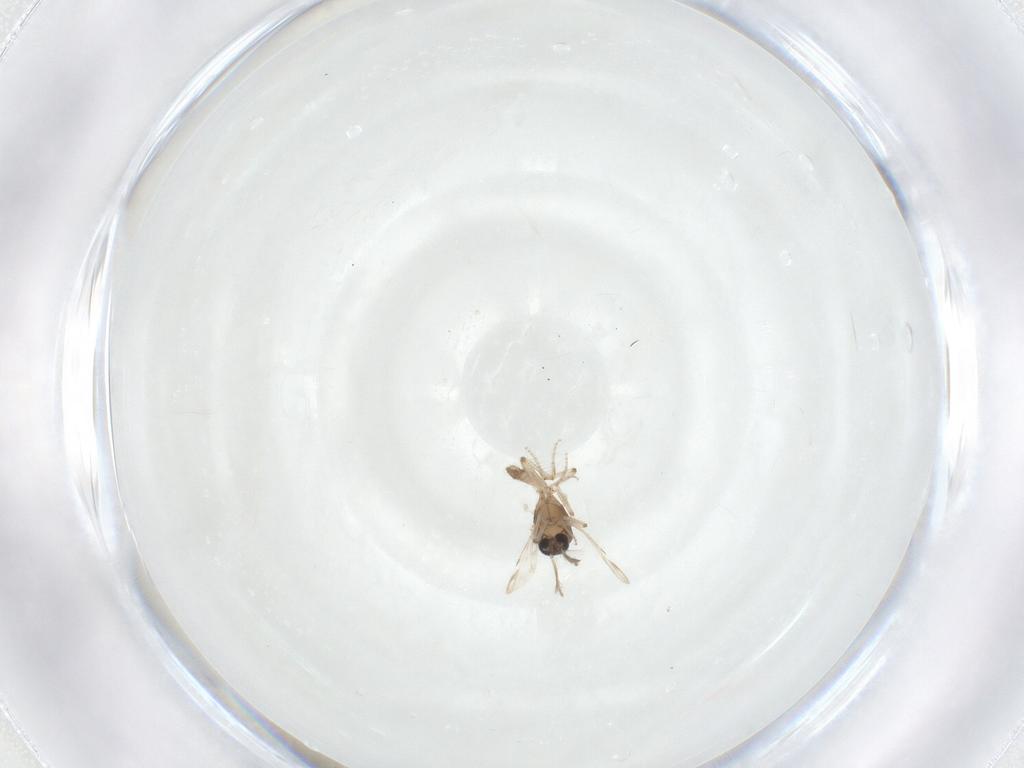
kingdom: Animalia
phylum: Arthropoda
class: Insecta
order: Diptera
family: Ceratopogonidae
